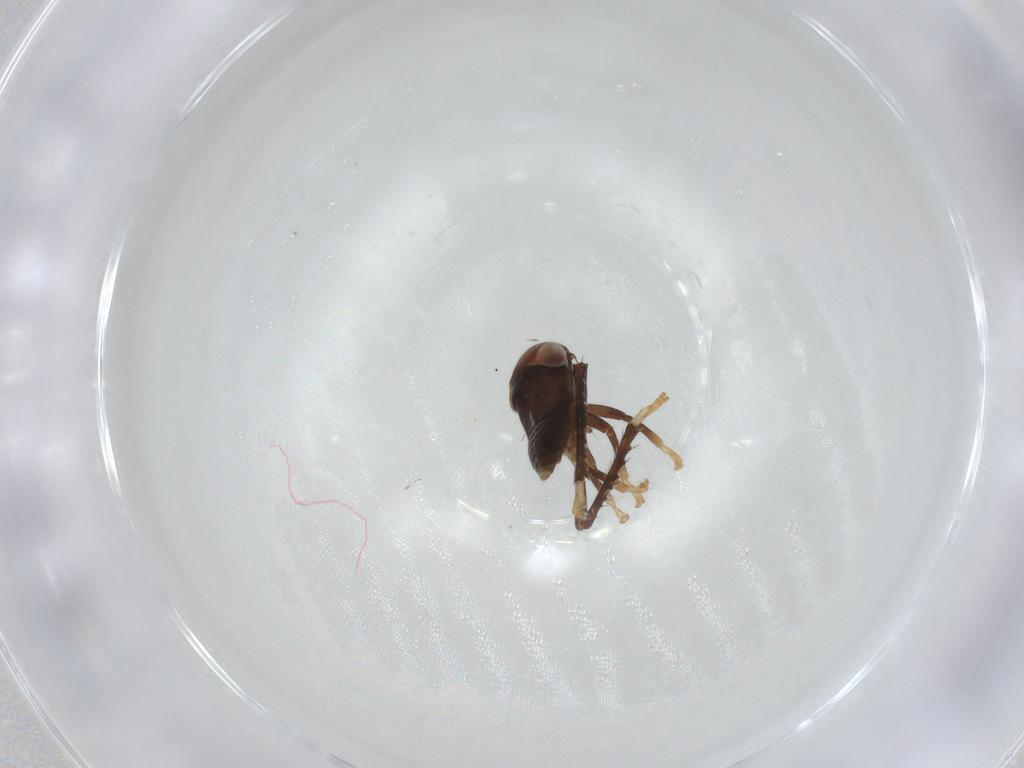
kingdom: Animalia
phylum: Arthropoda
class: Insecta
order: Hemiptera
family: Cicadellidae
